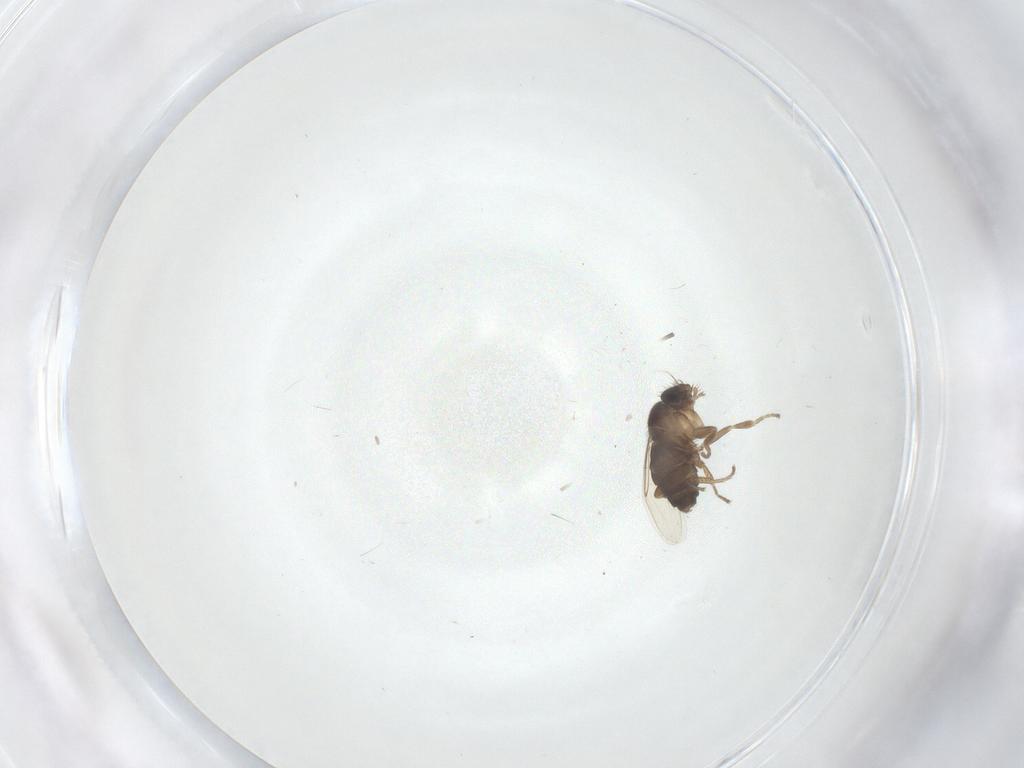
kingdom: Animalia
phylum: Arthropoda
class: Insecta
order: Diptera
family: Phoridae
